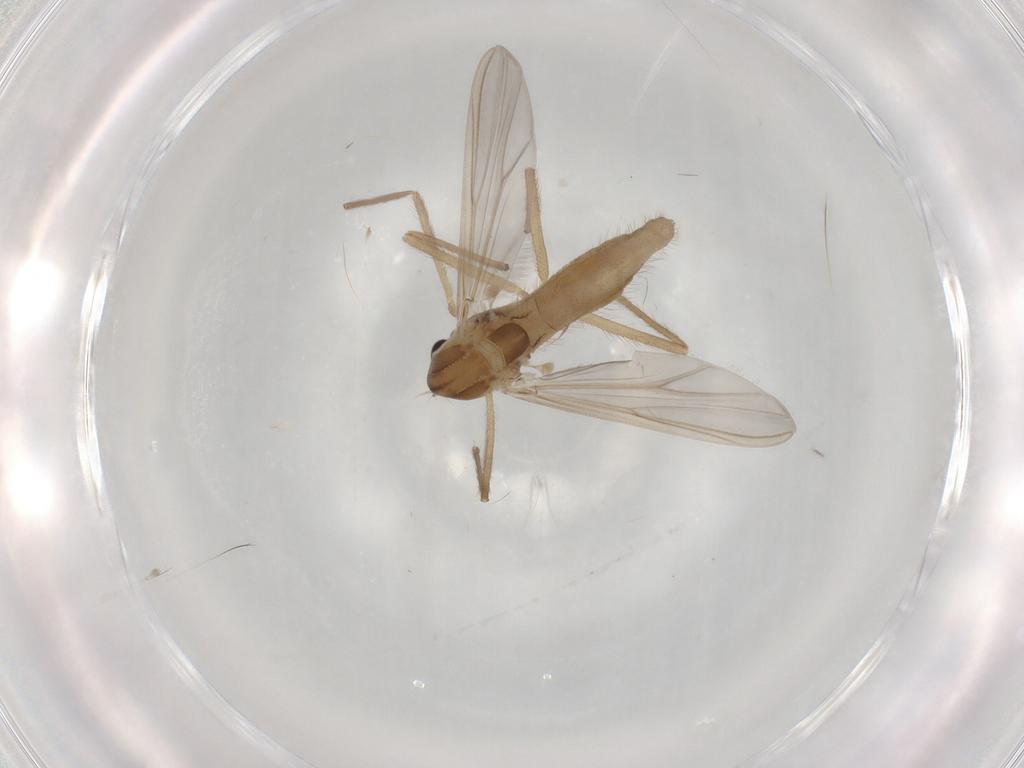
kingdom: Animalia
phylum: Arthropoda
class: Insecta
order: Diptera
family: Chironomidae
